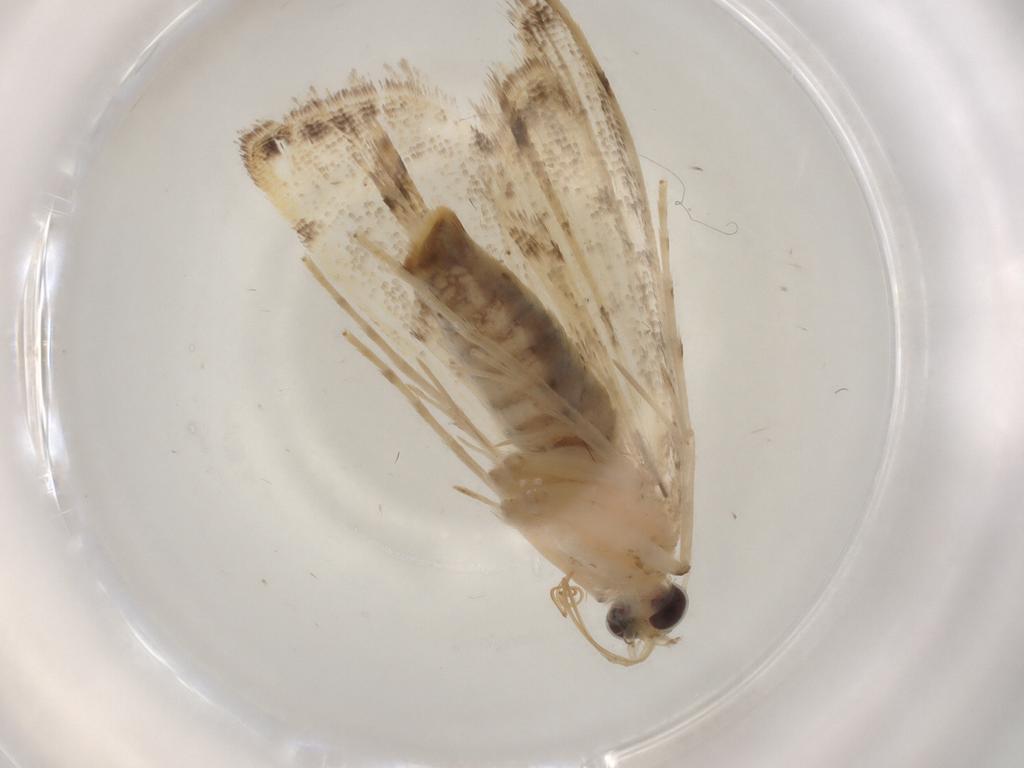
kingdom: Animalia
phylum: Arthropoda
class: Insecta
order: Lepidoptera
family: Crambidae
